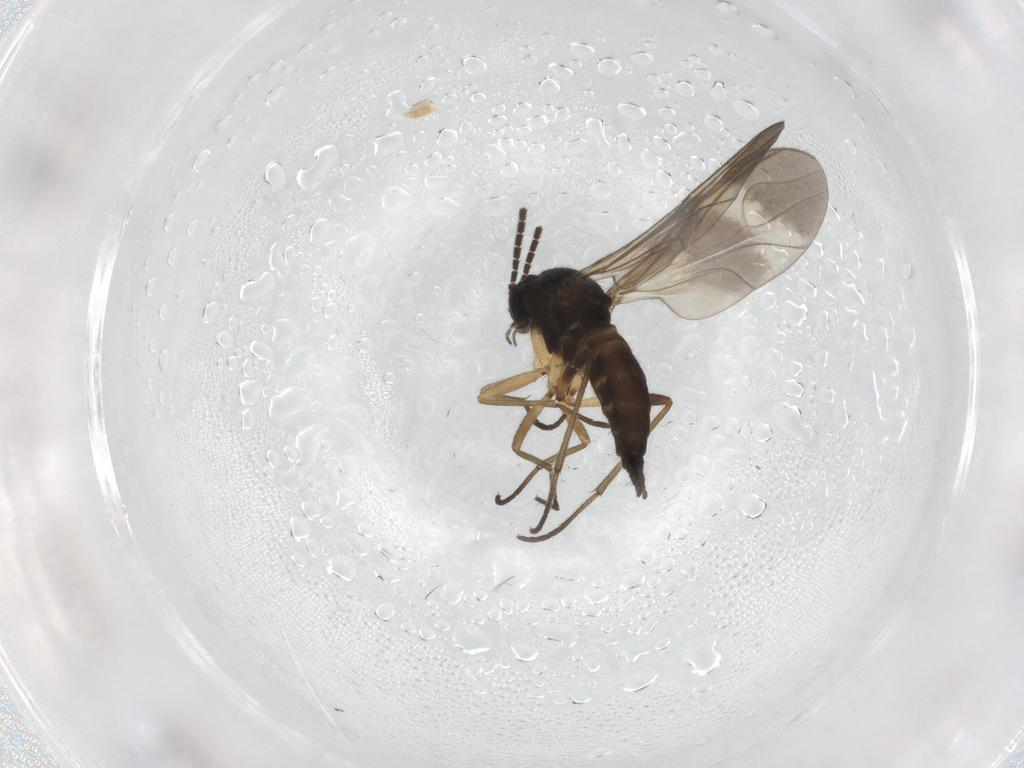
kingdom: Animalia
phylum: Arthropoda
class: Insecta
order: Diptera
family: Sciaridae
